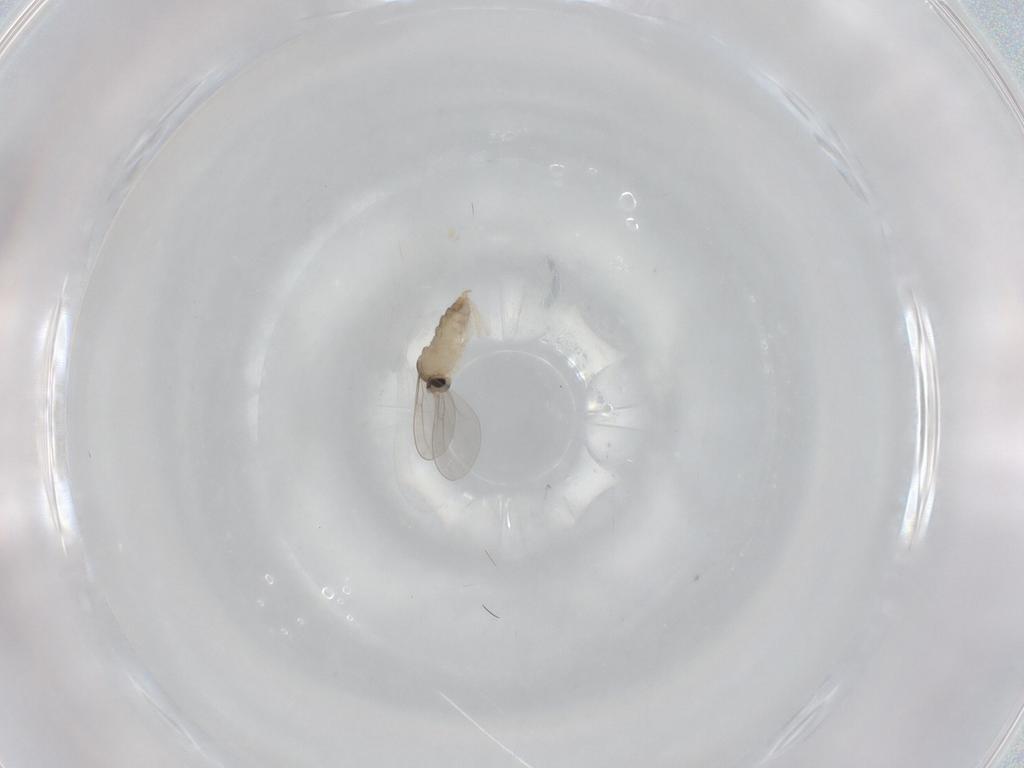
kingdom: Animalia
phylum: Arthropoda
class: Insecta
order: Diptera
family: Cecidomyiidae
